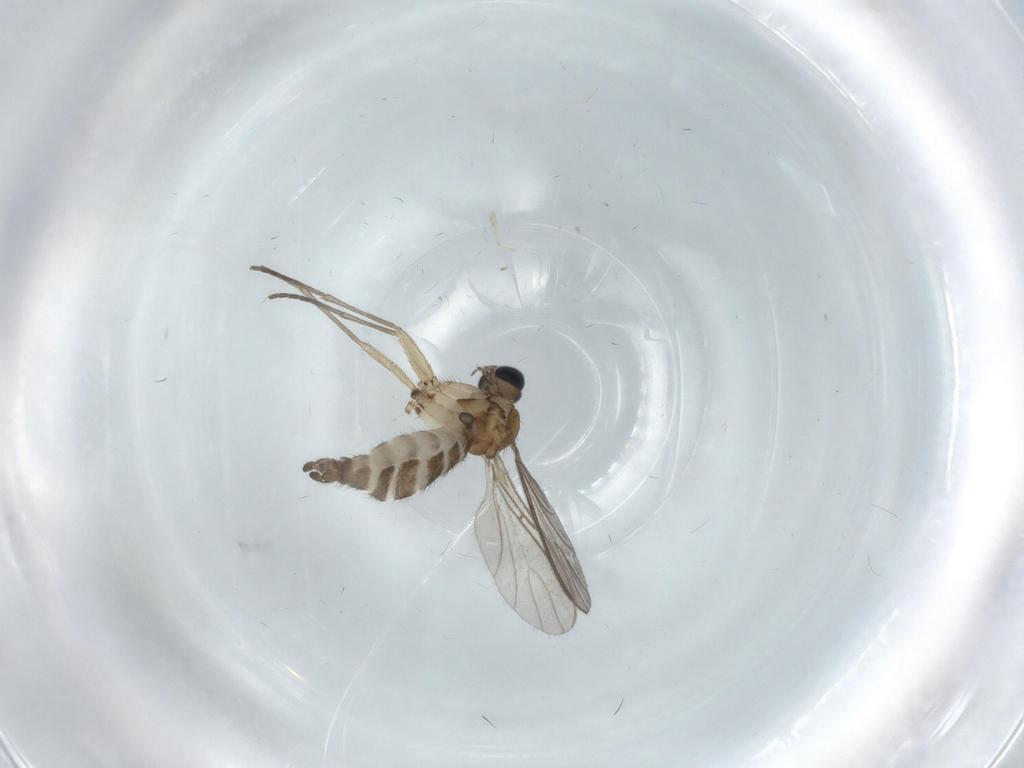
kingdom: Animalia
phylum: Arthropoda
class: Insecta
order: Diptera
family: Sciaridae
